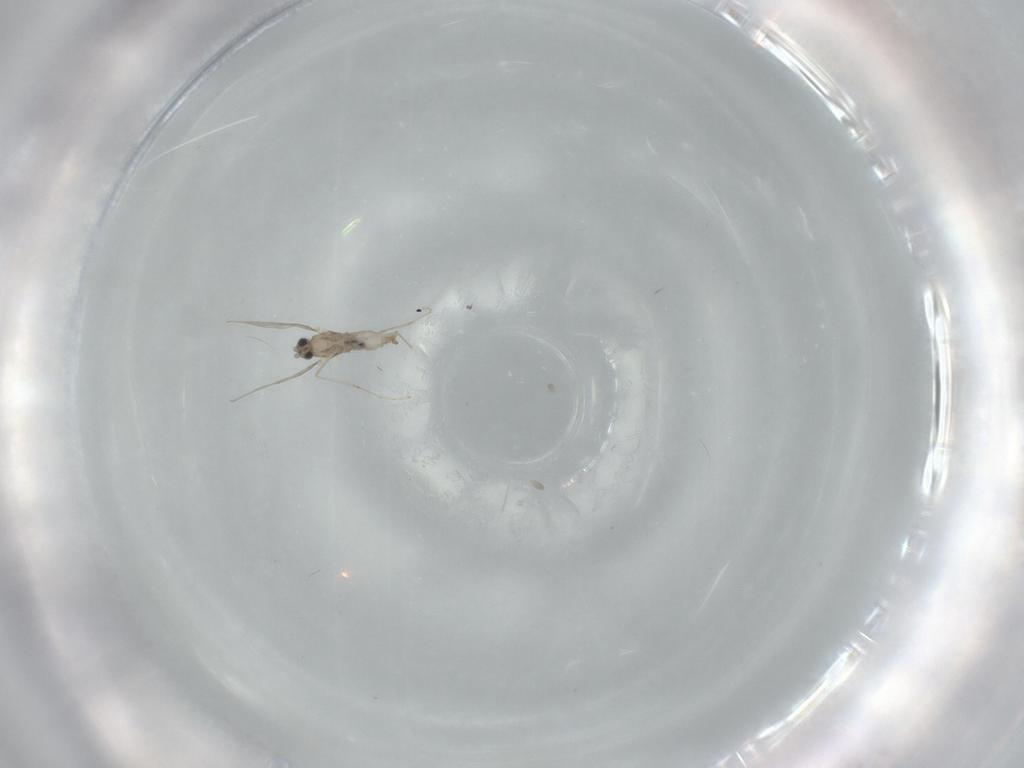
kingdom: Animalia
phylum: Arthropoda
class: Insecta
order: Diptera
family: Cecidomyiidae
